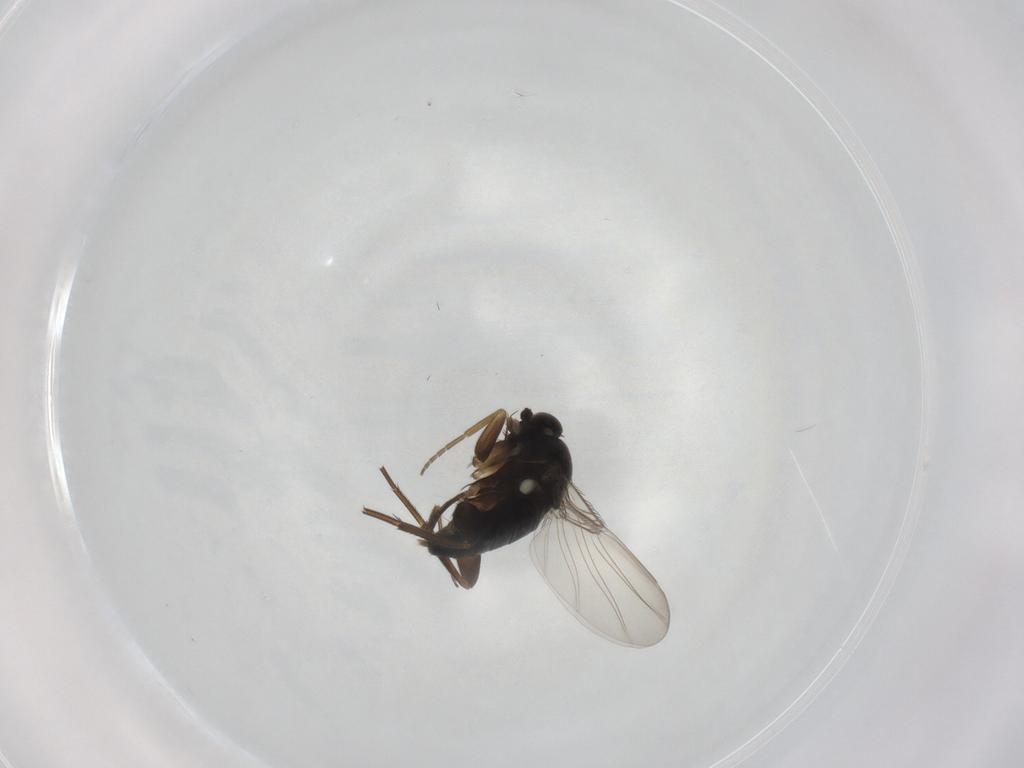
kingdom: Animalia
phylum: Arthropoda
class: Insecta
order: Diptera
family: Phoridae
